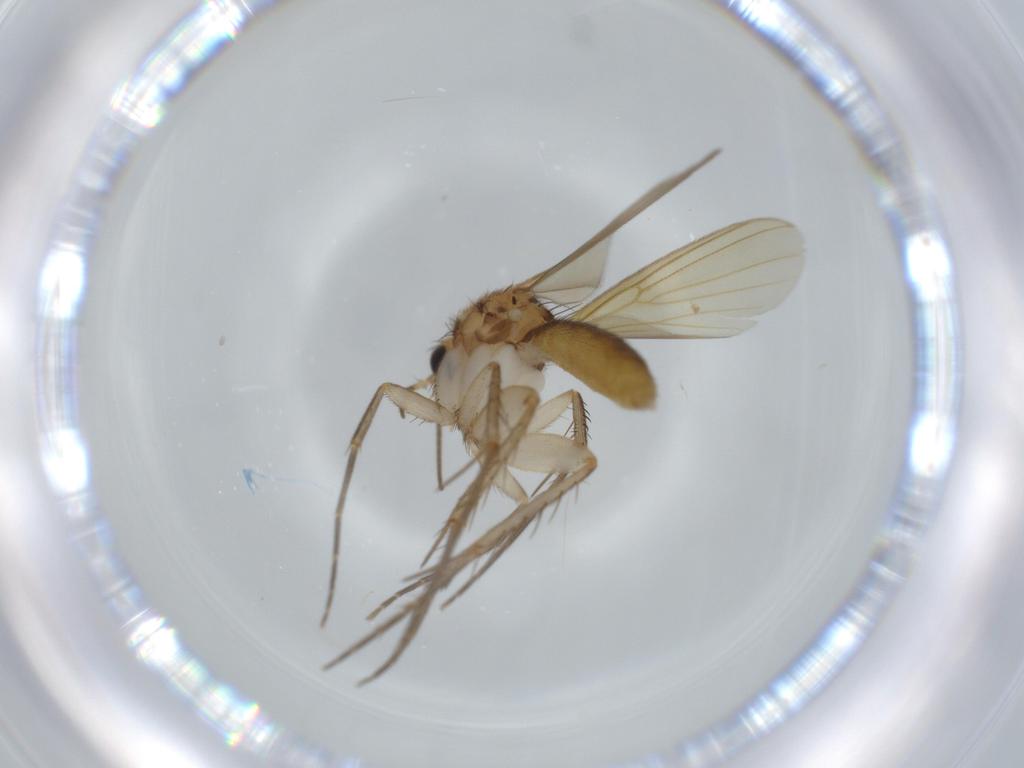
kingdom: Animalia
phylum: Arthropoda
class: Insecta
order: Diptera
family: Mycetophilidae
